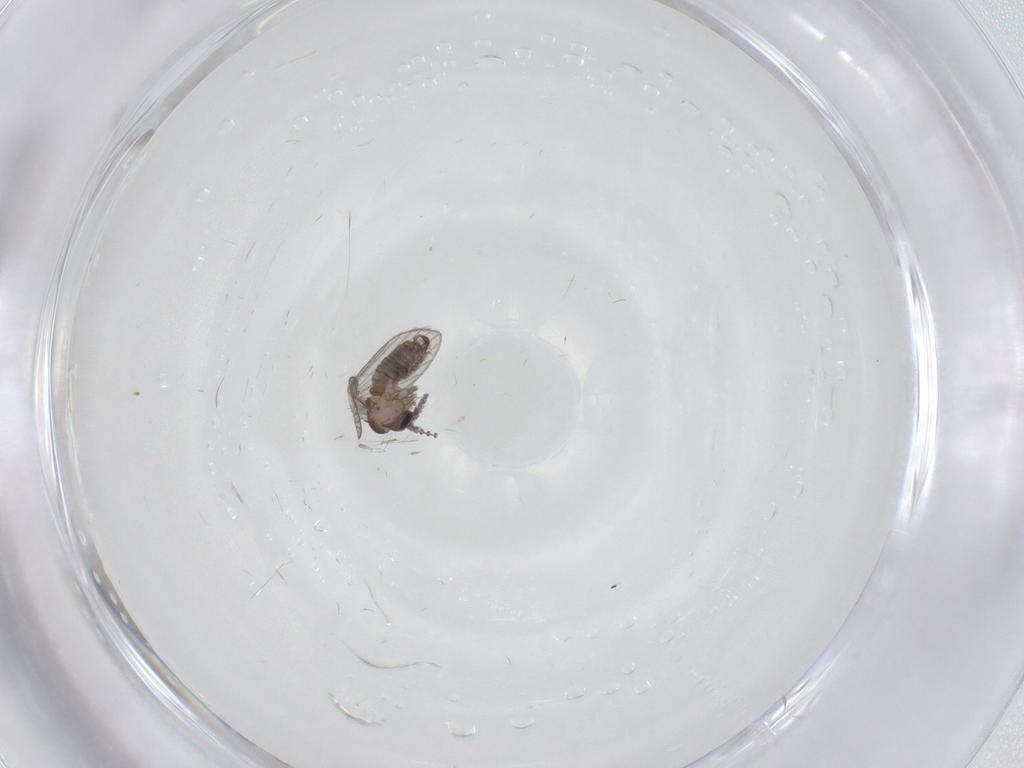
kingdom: Animalia
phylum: Arthropoda
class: Insecta
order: Diptera
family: Psychodidae
